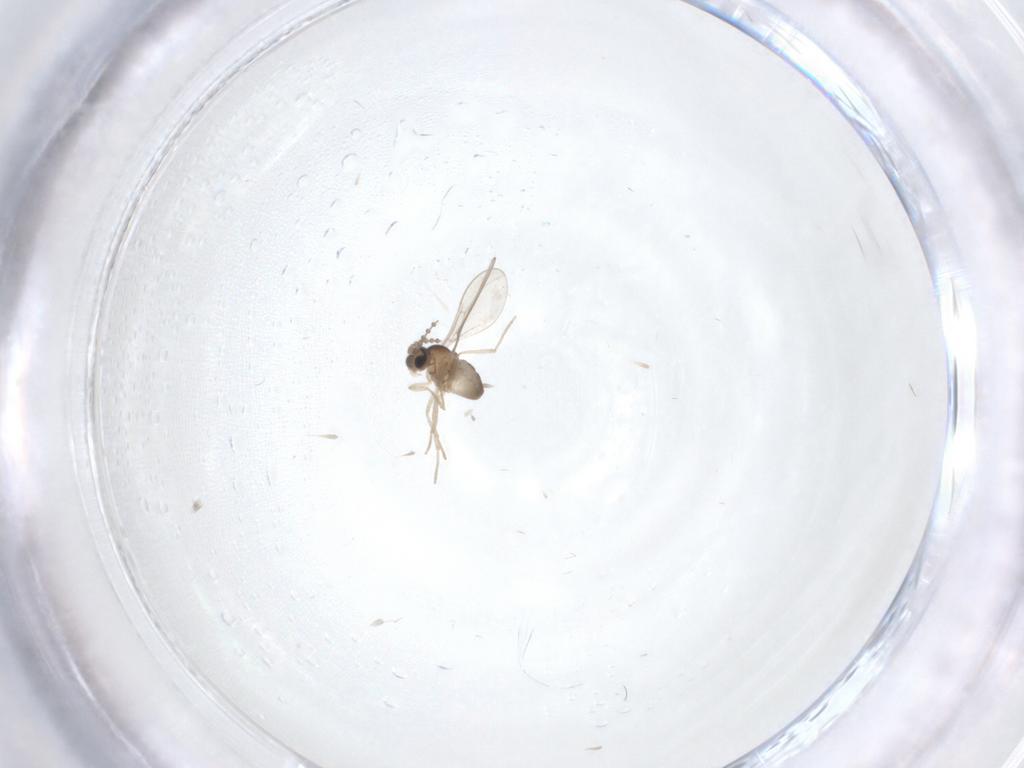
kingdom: Animalia
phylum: Arthropoda
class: Insecta
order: Diptera
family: Cecidomyiidae
